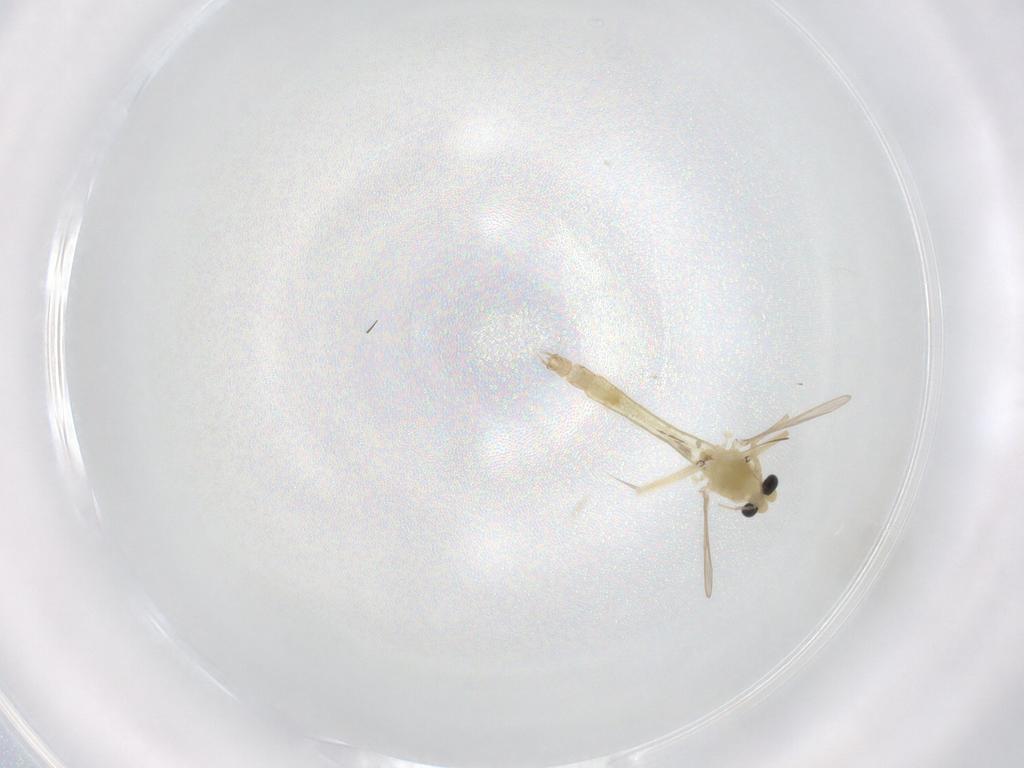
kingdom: Animalia
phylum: Arthropoda
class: Insecta
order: Diptera
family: Chironomidae
